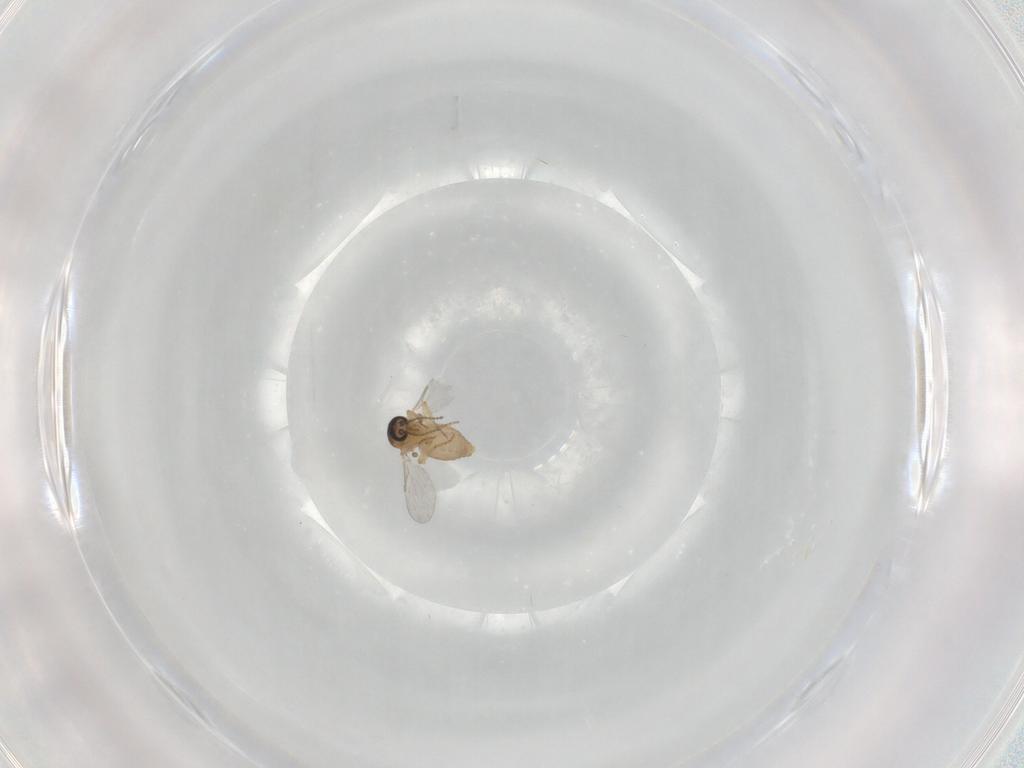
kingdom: Animalia
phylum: Arthropoda
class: Insecta
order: Diptera
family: Ceratopogonidae
